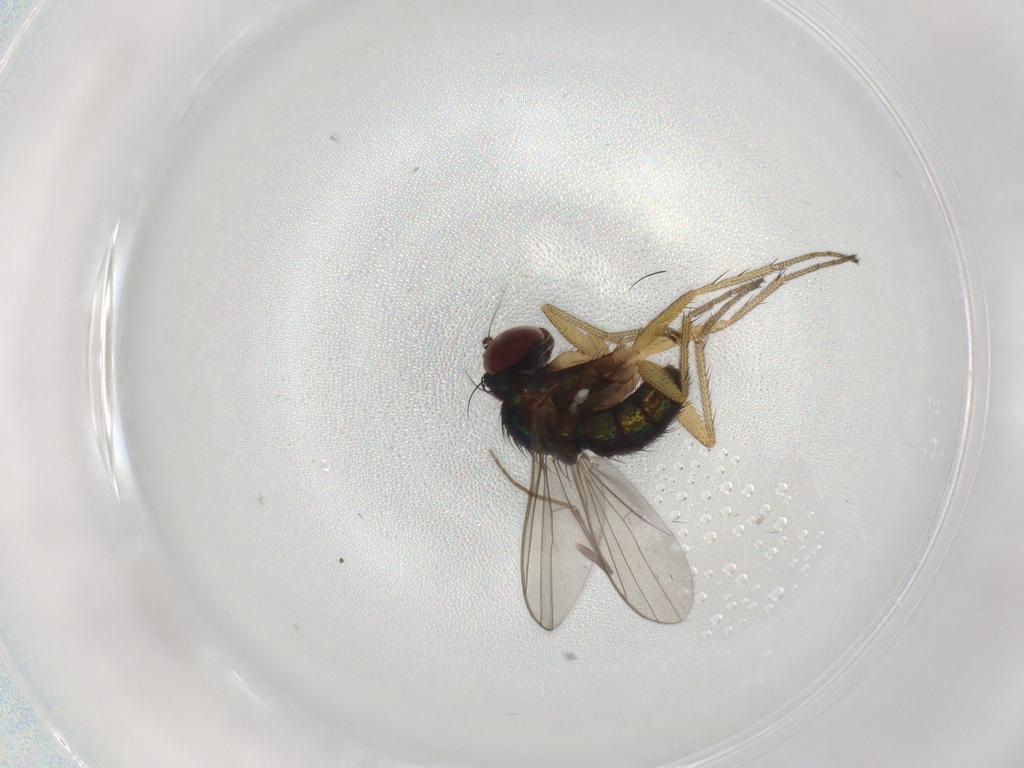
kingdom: Animalia
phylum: Arthropoda
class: Insecta
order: Diptera
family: Chironomidae
